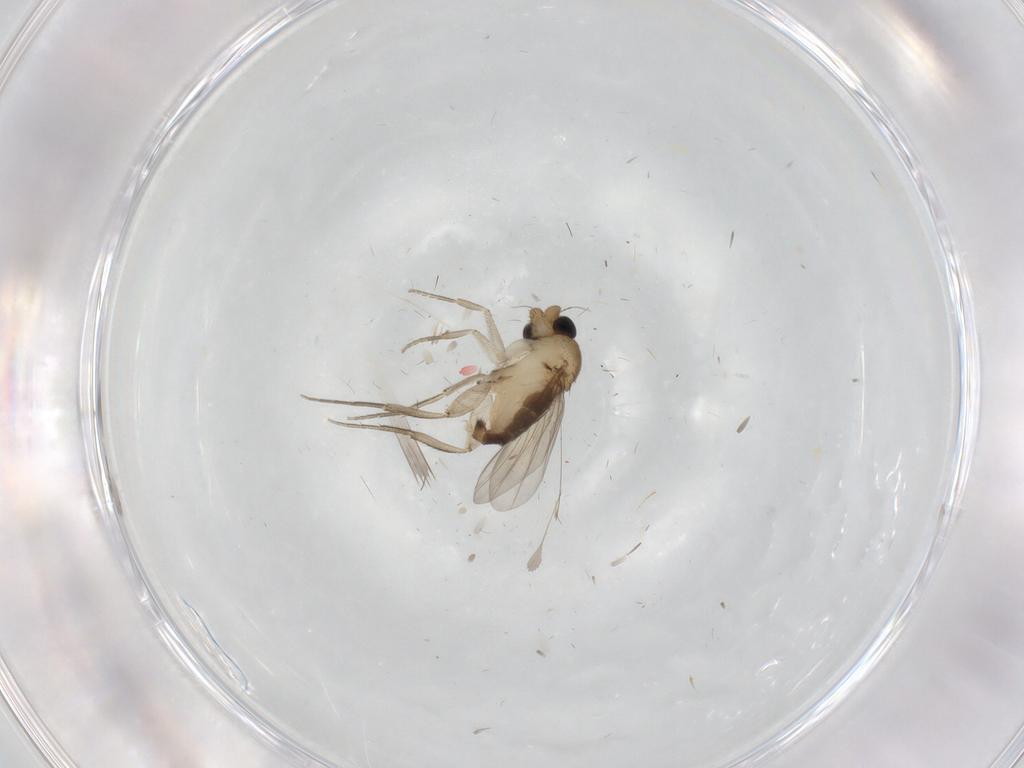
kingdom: Animalia
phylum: Arthropoda
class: Insecta
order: Diptera
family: Phoridae
